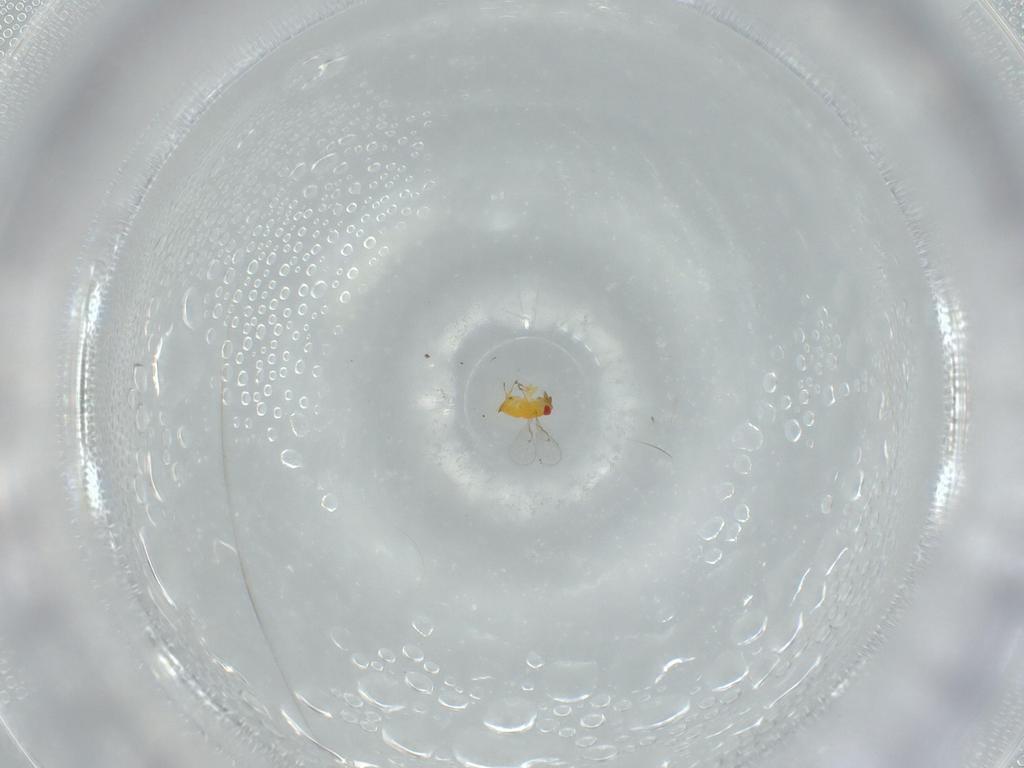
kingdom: Animalia
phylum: Arthropoda
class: Insecta
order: Hymenoptera
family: Trichogrammatidae
